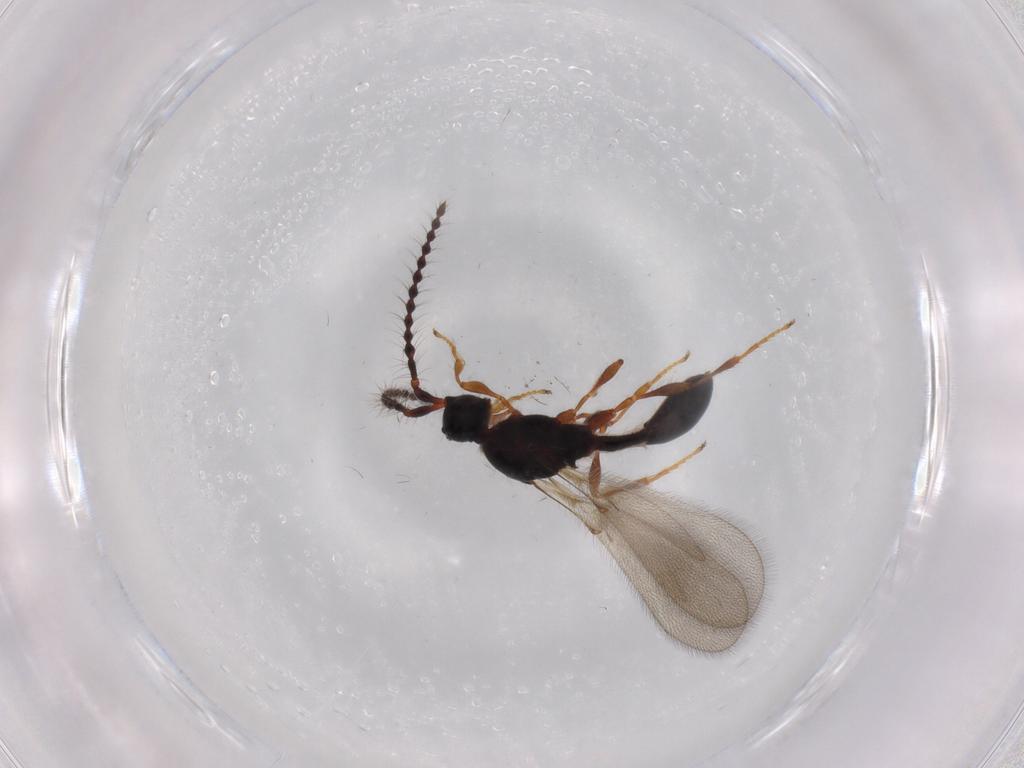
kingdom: Animalia
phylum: Arthropoda
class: Insecta
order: Hymenoptera
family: Diapriidae
